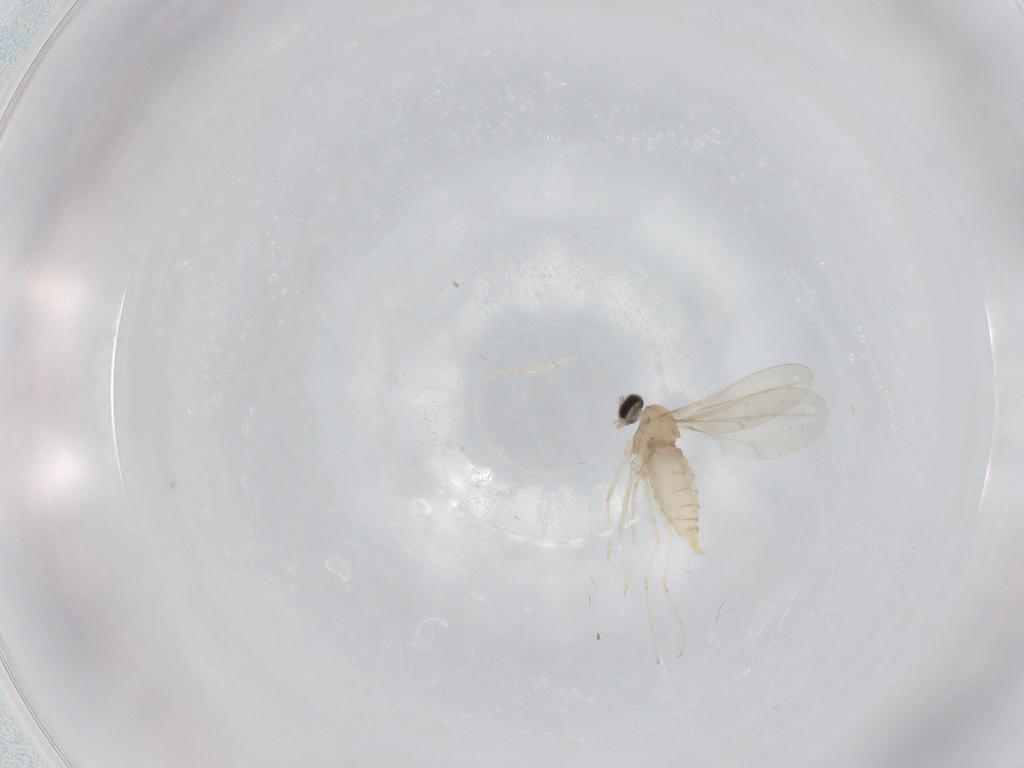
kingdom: Animalia
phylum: Arthropoda
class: Insecta
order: Diptera
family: Cecidomyiidae
